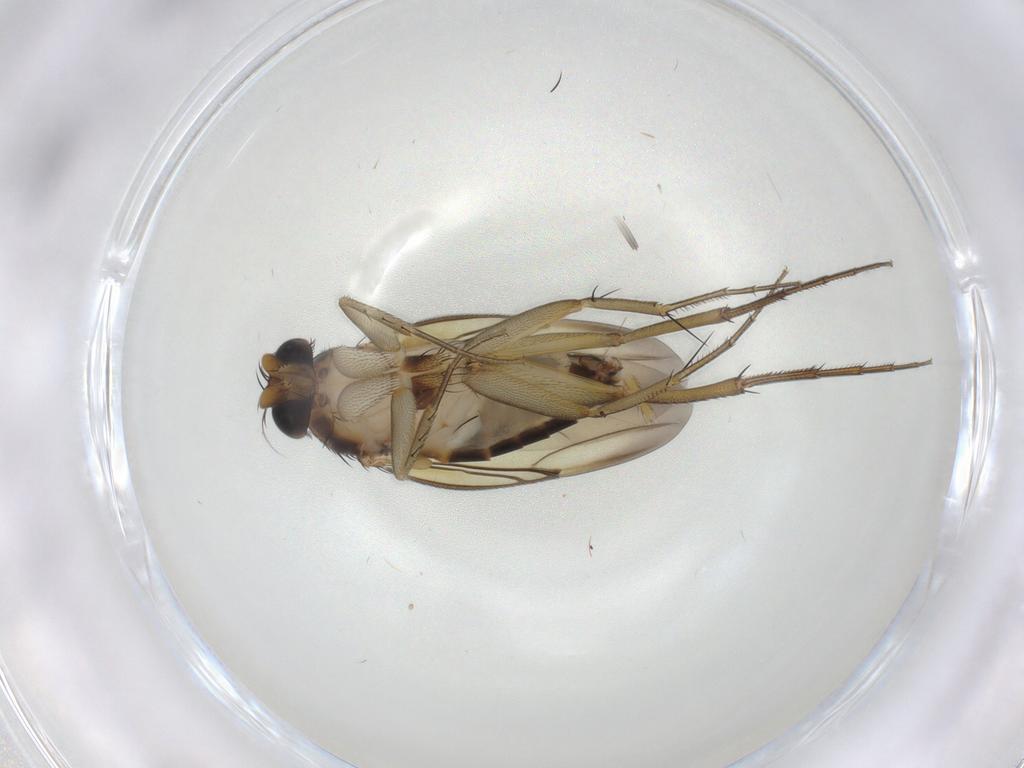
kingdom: Animalia
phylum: Arthropoda
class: Insecta
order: Diptera
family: Phoridae
